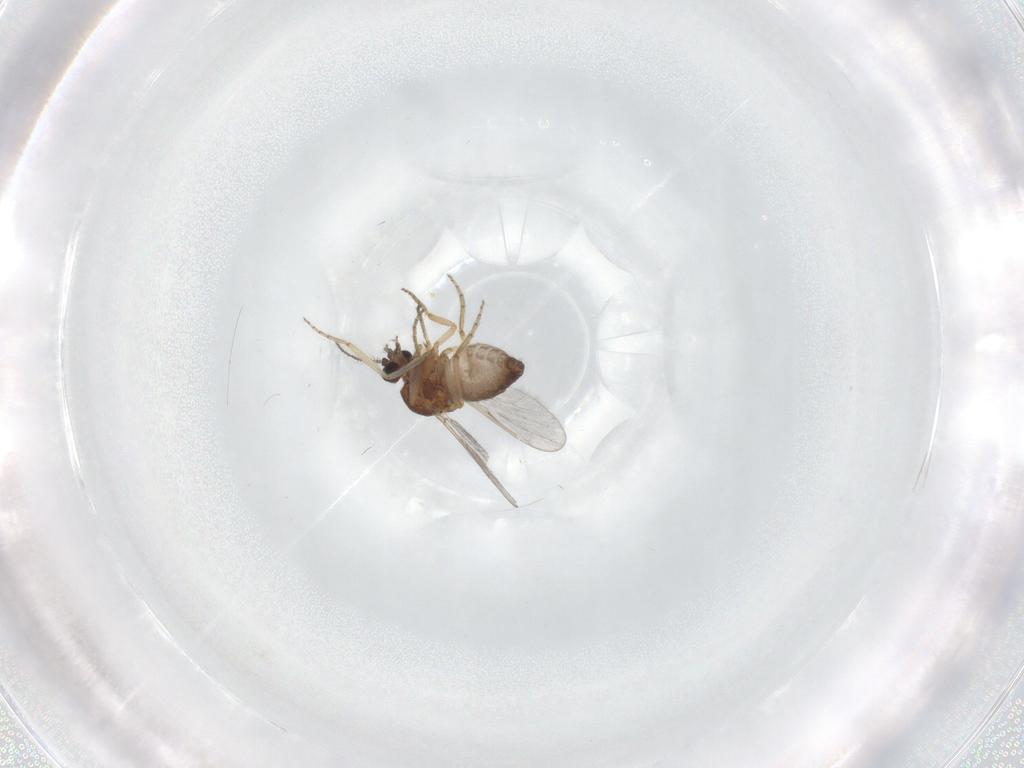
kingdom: Animalia
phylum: Arthropoda
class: Insecta
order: Diptera
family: Ceratopogonidae
